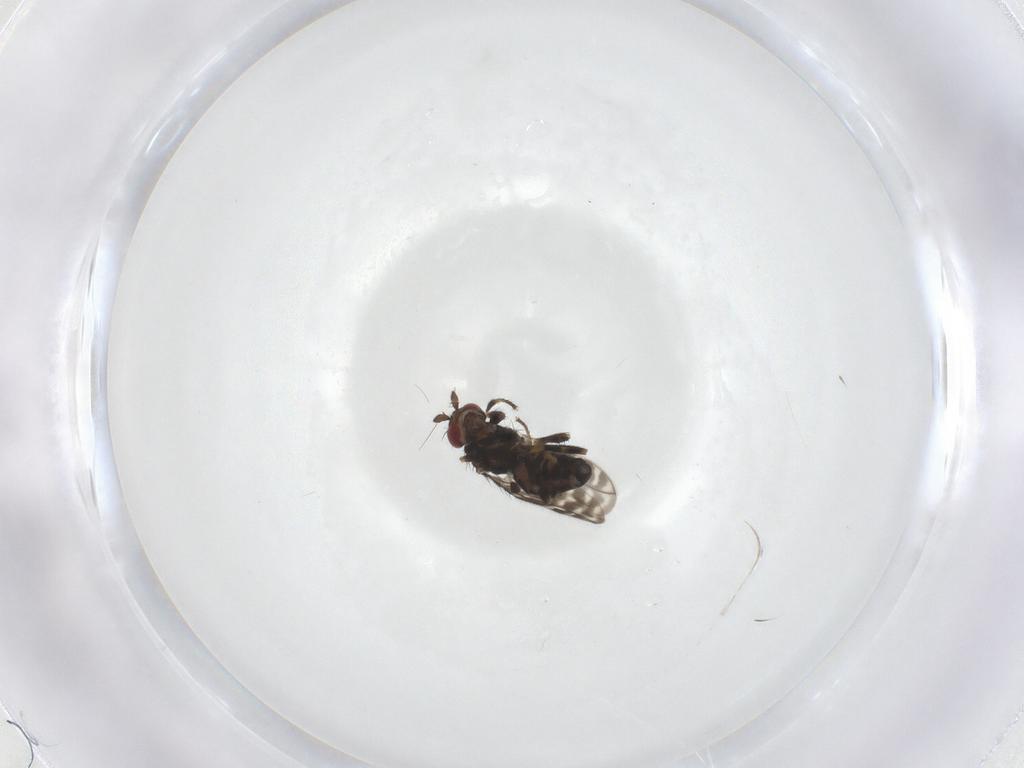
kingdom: Animalia
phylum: Arthropoda
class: Insecta
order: Diptera
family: Sphaeroceridae
